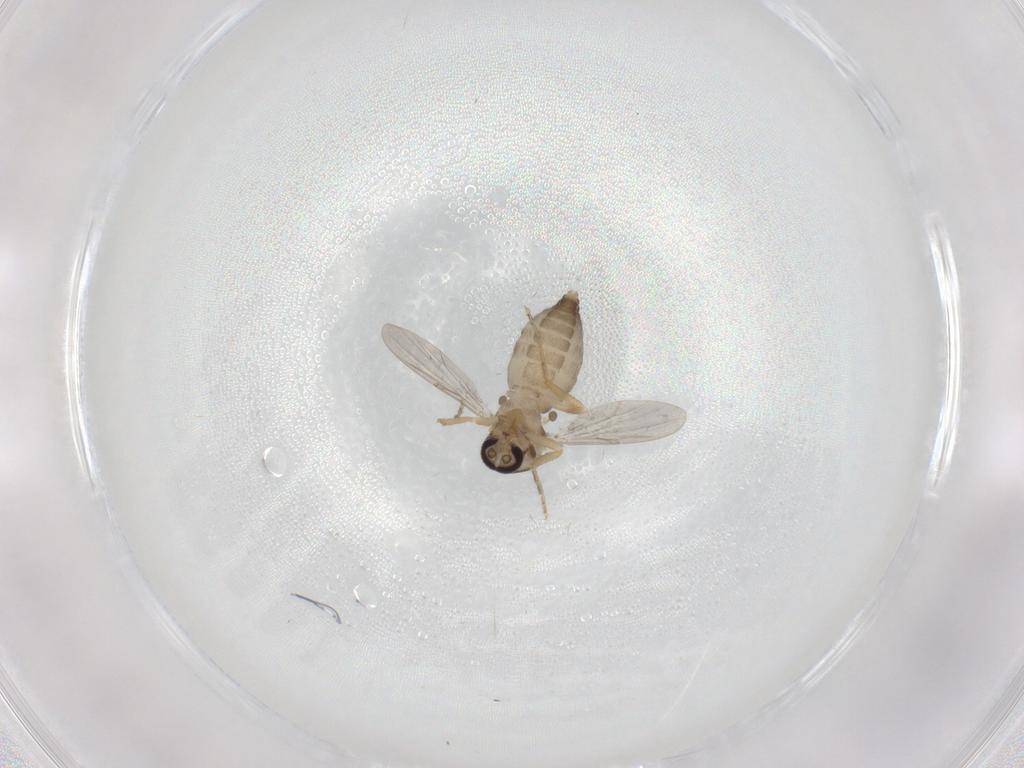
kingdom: Animalia
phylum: Arthropoda
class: Insecta
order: Diptera
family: Ceratopogonidae
